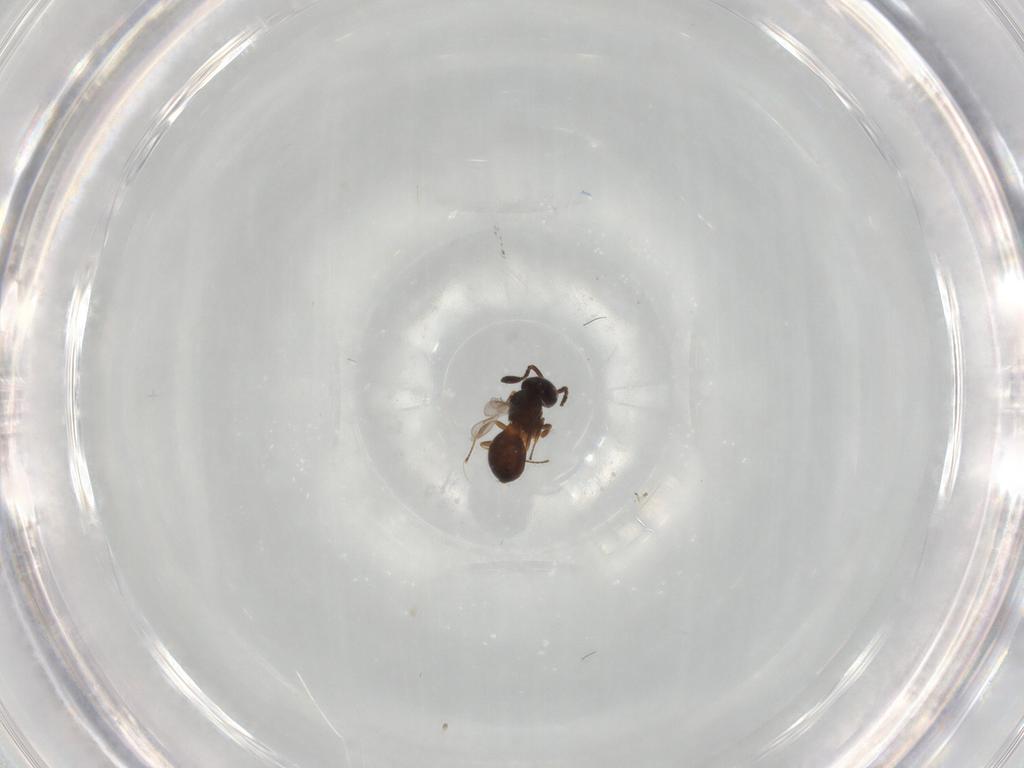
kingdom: Animalia
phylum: Arthropoda
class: Insecta
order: Hymenoptera
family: Scelionidae
